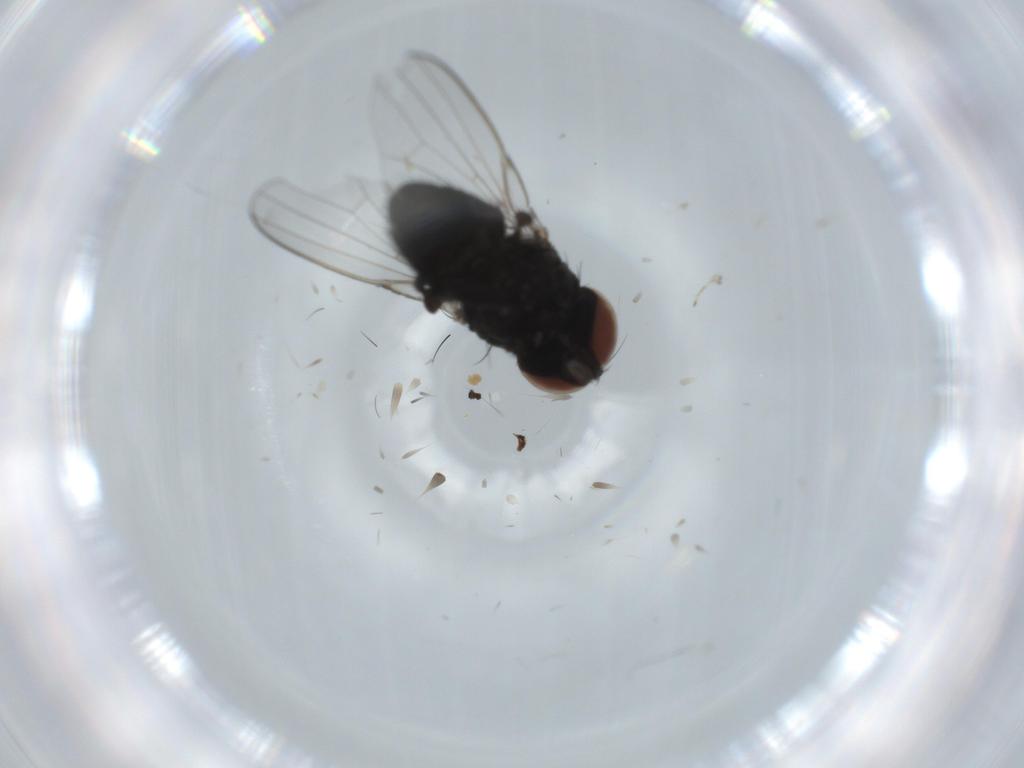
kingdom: Animalia
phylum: Arthropoda
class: Insecta
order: Diptera
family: Milichiidae
